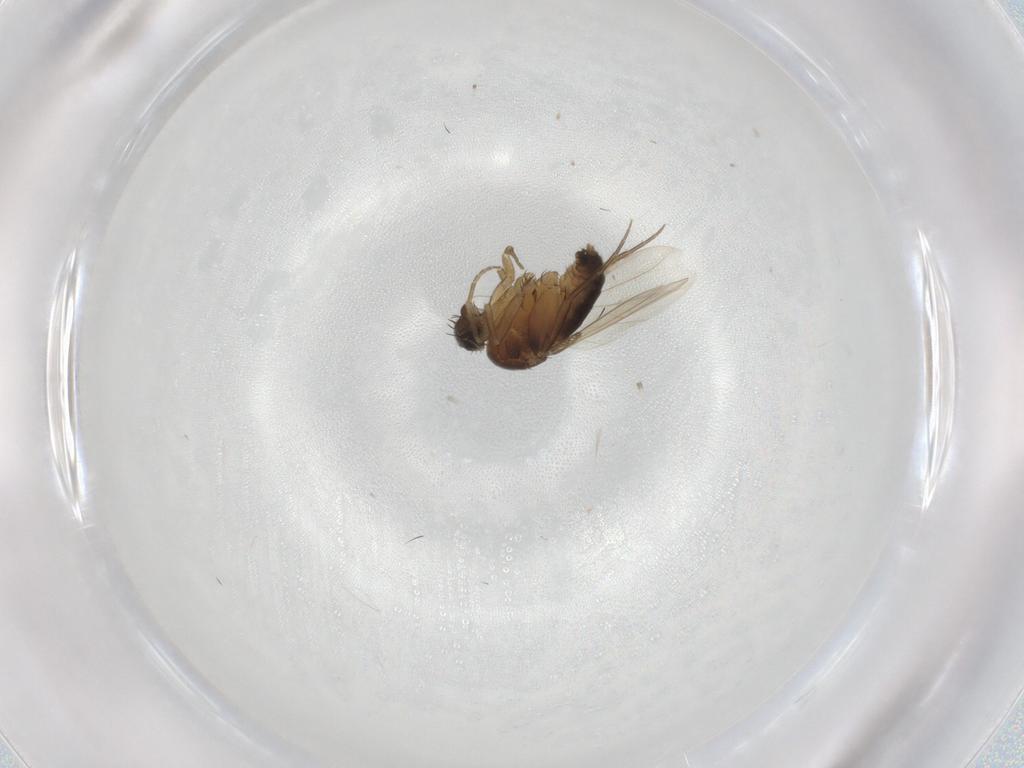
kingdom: Animalia
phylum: Arthropoda
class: Insecta
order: Diptera
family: Phoridae
